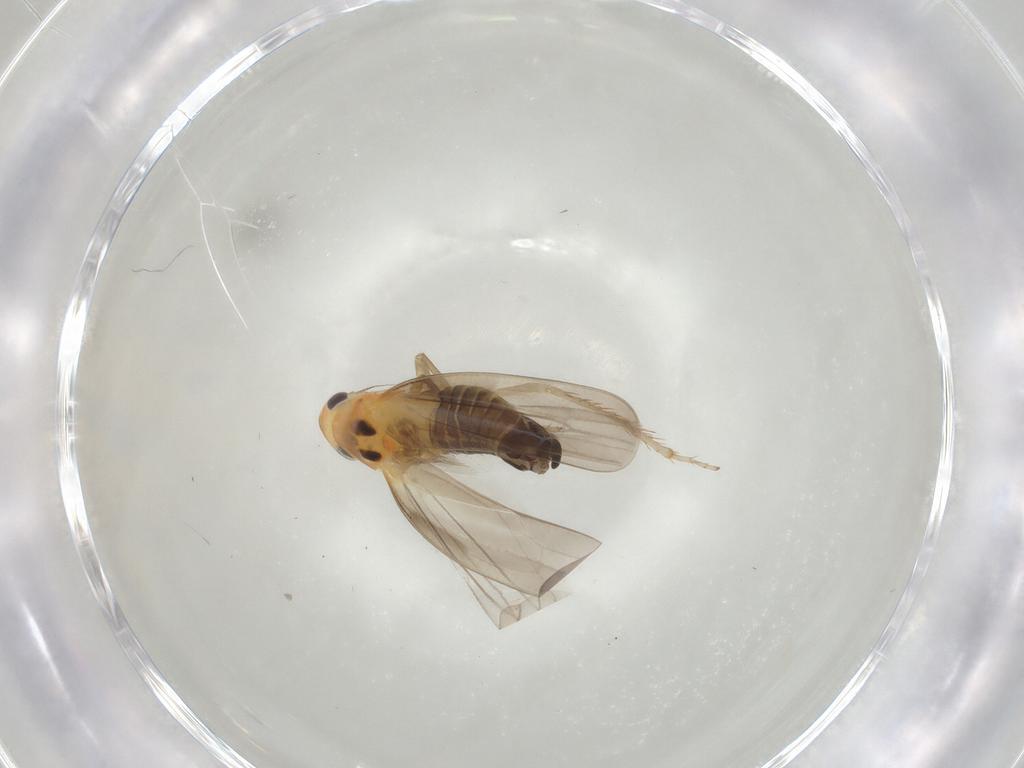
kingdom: Animalia
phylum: Arthropoda
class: Insecta
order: Hemiptera
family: Cicadellidae
